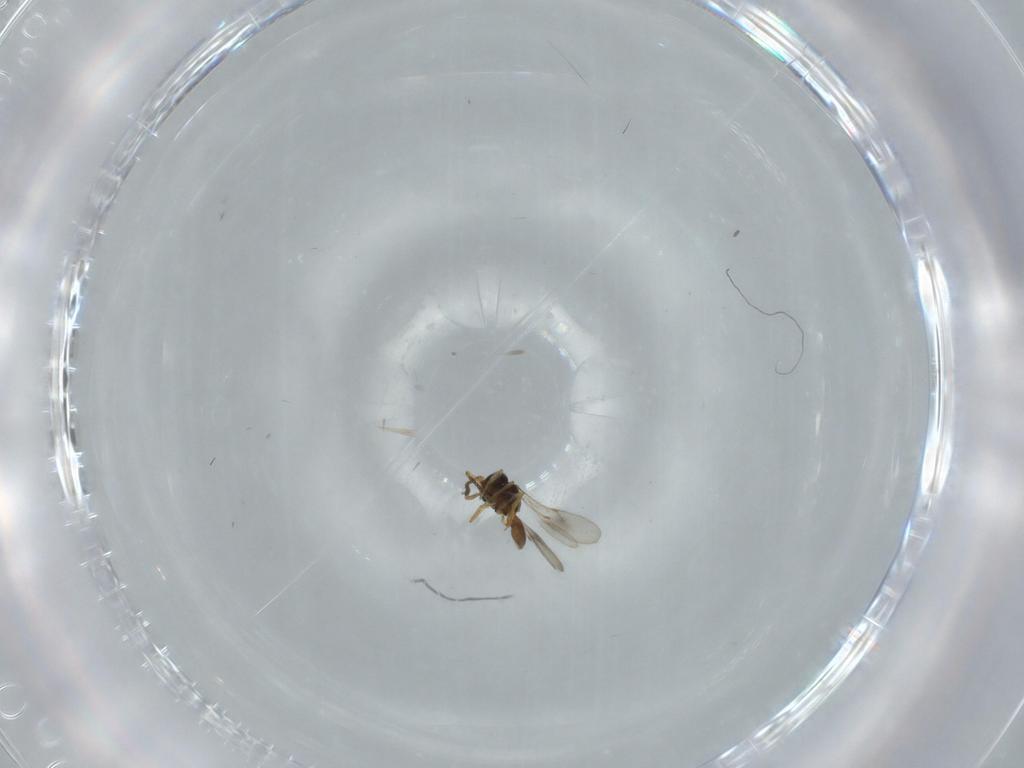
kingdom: Animalia
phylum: Arthropoda
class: Insecta
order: Hymenoptera
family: Scelionidae
